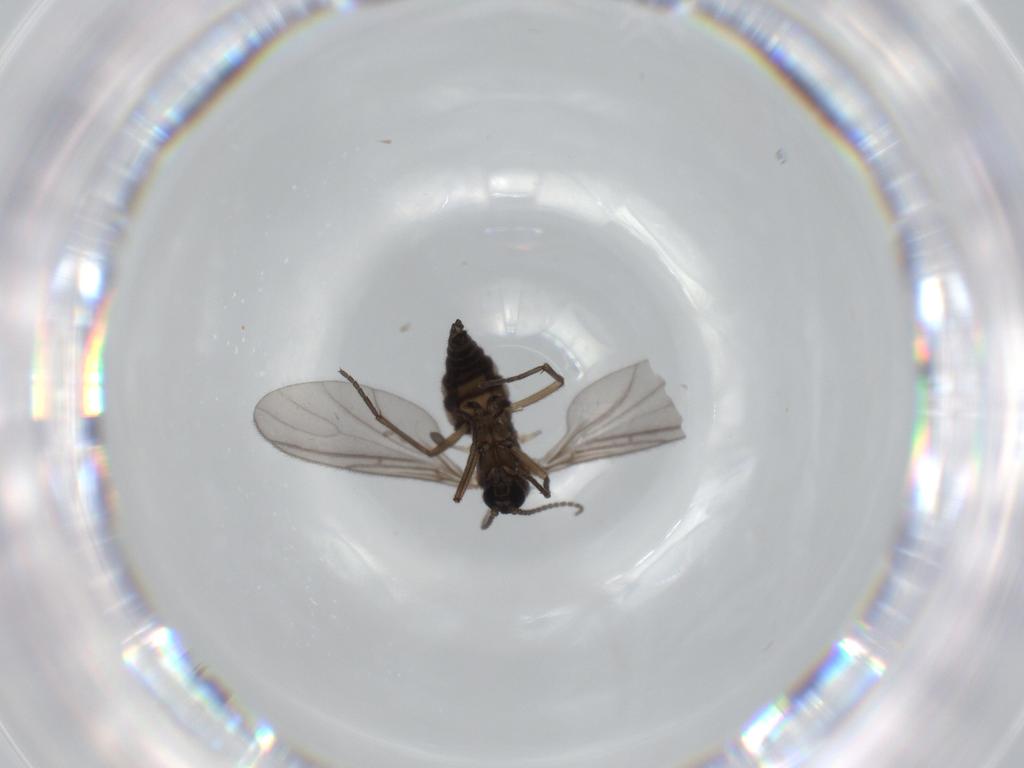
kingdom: Animalia
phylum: Arthropoda
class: Insecta
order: Diptera
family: Sciaridae
